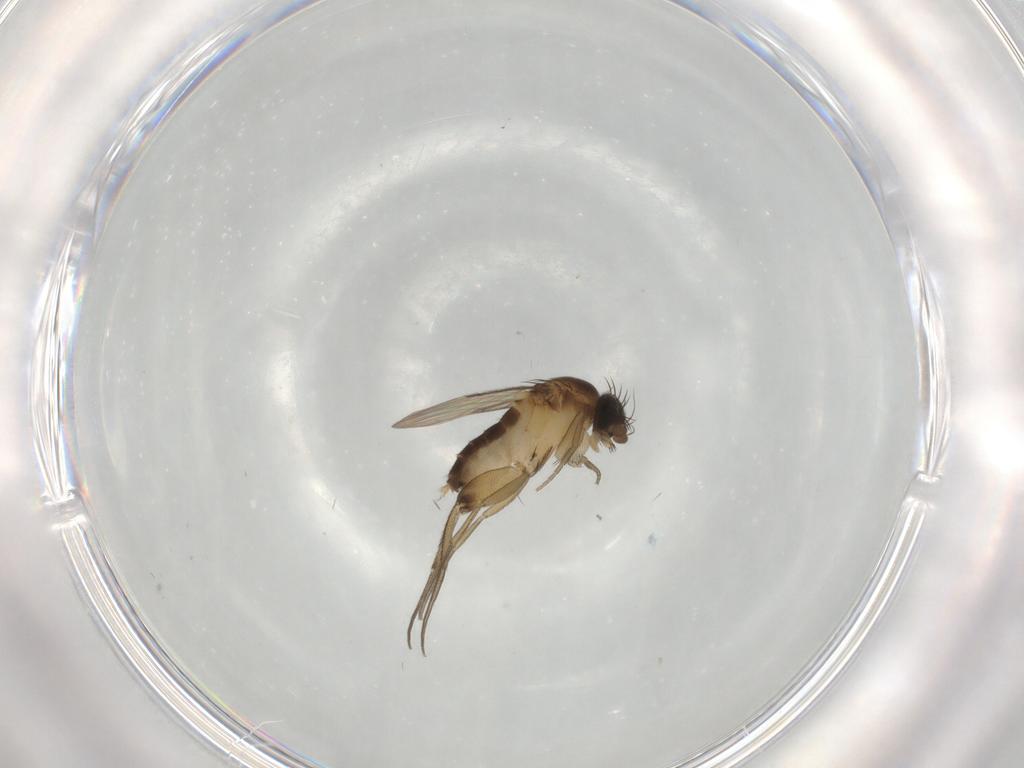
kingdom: Animalia
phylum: Arthropoda
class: Insecta
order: Diptera
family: Phoridae
